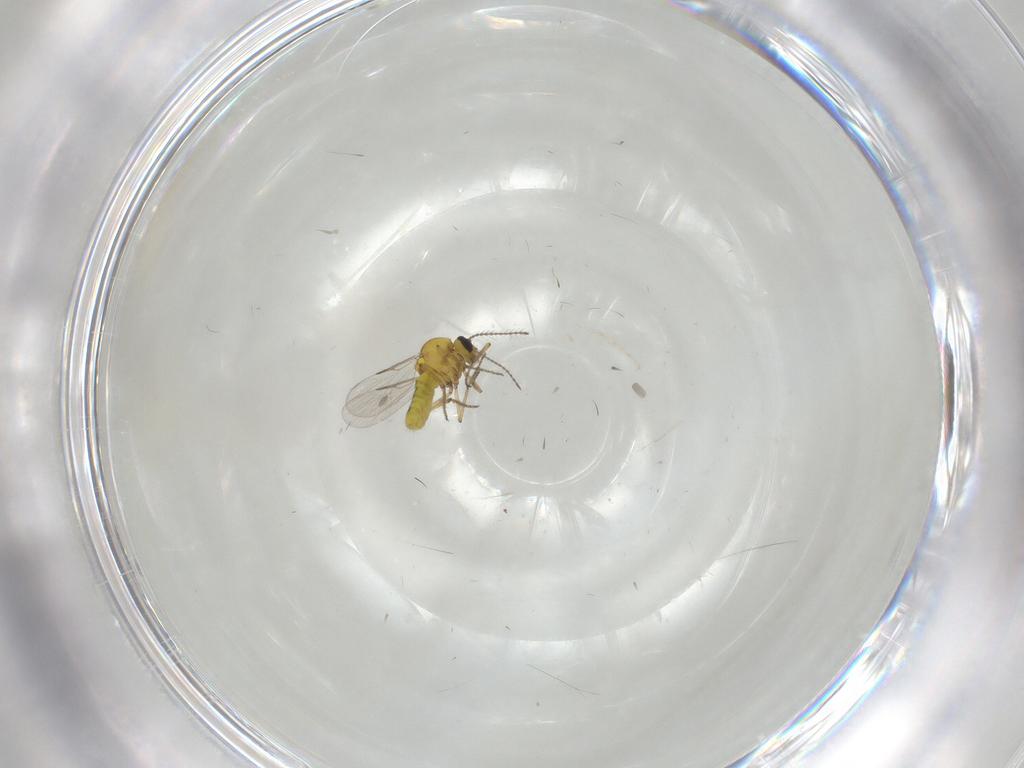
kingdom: Animalia
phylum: Arthropoda
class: Insecta
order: Diptera
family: Cecidomyiidae
